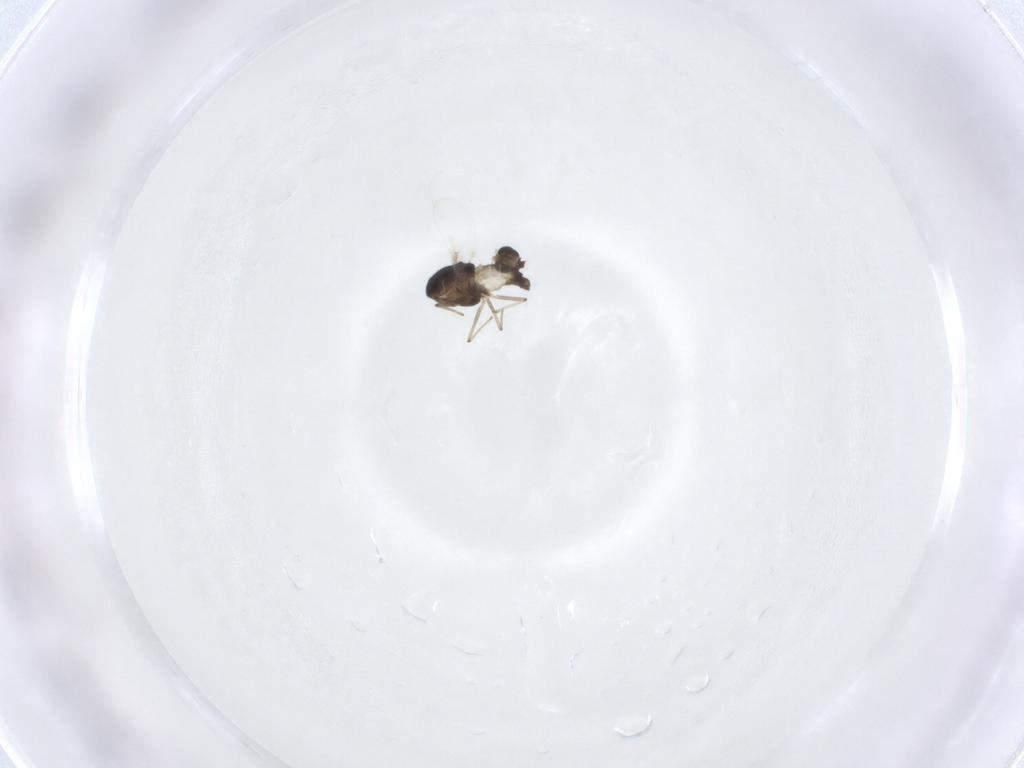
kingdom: Animalia
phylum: Arthropoda
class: Insecta
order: Diptera
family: Chironomidae
